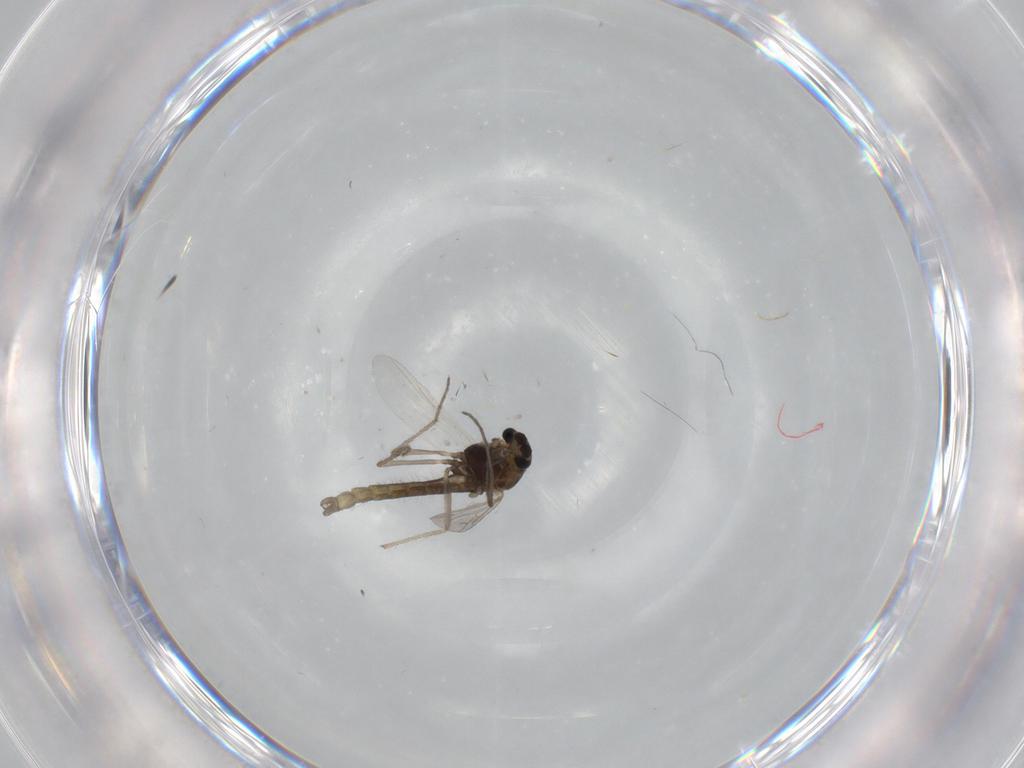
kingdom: Animalia
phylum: Arthropoda
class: Insecta
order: Diptera
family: Chironomidae
